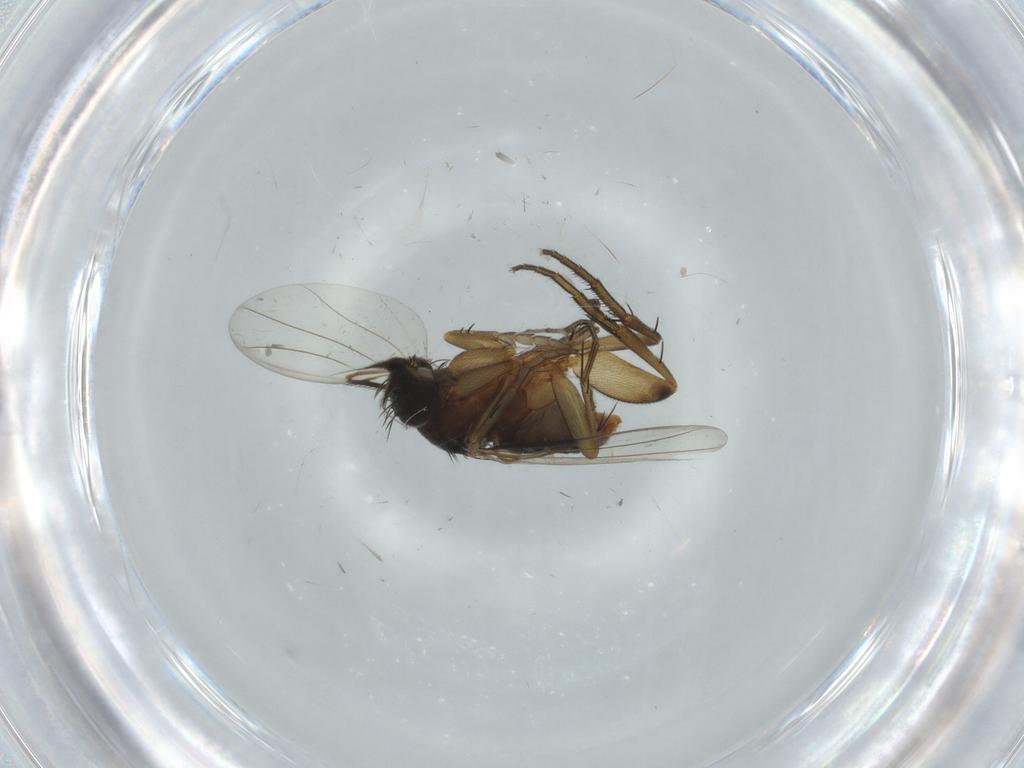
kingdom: Animalia
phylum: Arthropoda
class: Insecta
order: Diptera
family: Phoridae
